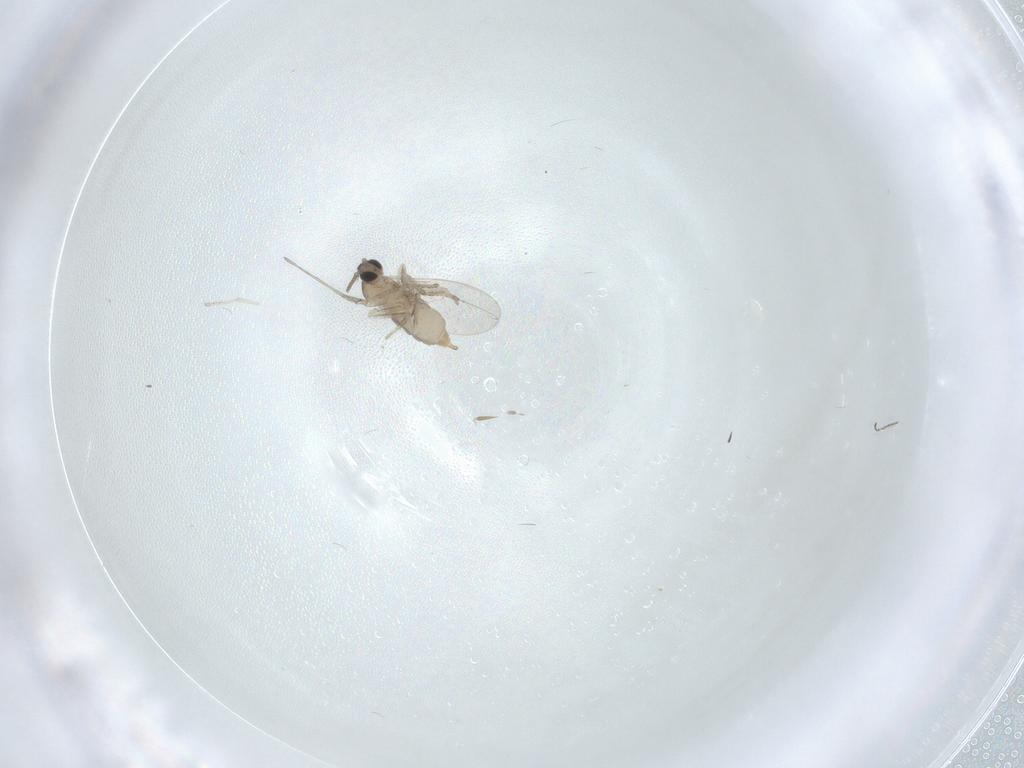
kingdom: Animalia
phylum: Arthropoda
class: Insecta
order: Diptera
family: Cecidomyiidae
